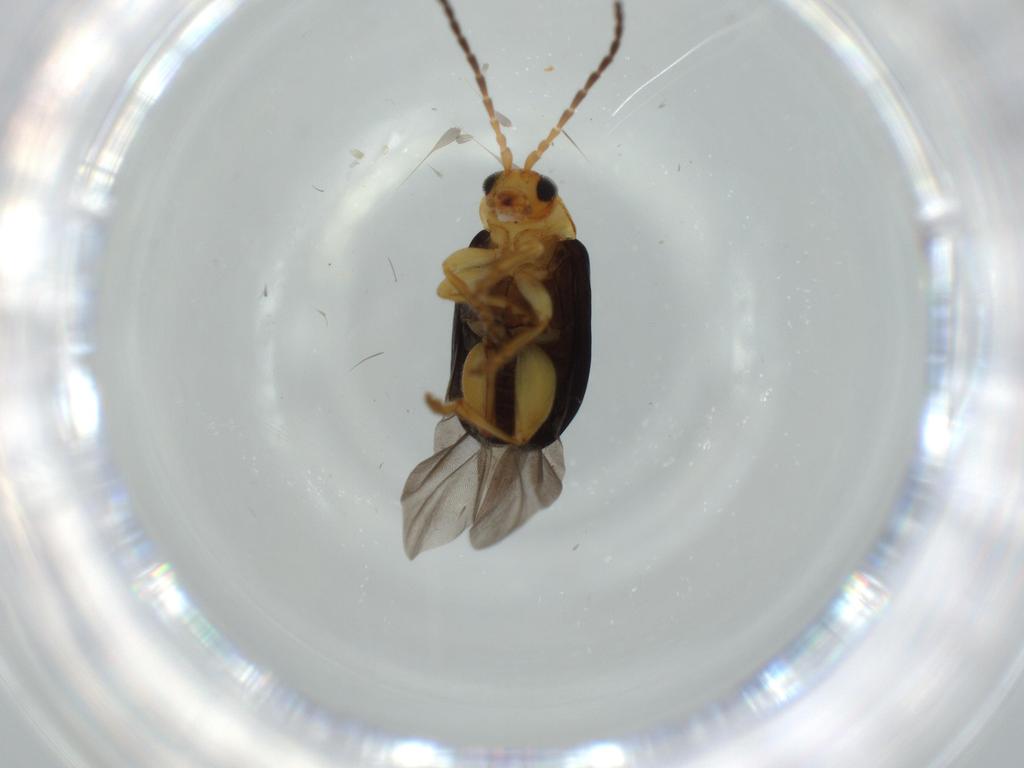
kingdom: Animalia
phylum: Arthropoda
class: Insecta
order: Coleoptera
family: Chrysomelidae
